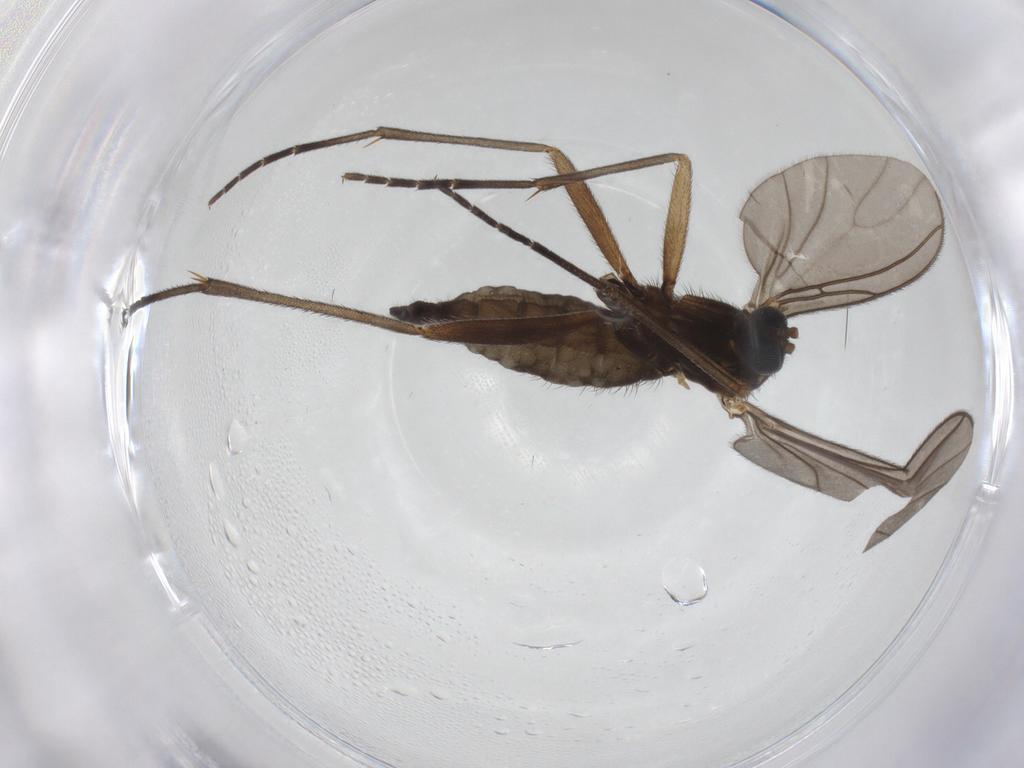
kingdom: Animalia
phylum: Arthropoda
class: Insecta
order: Diptera
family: Sciaridae
